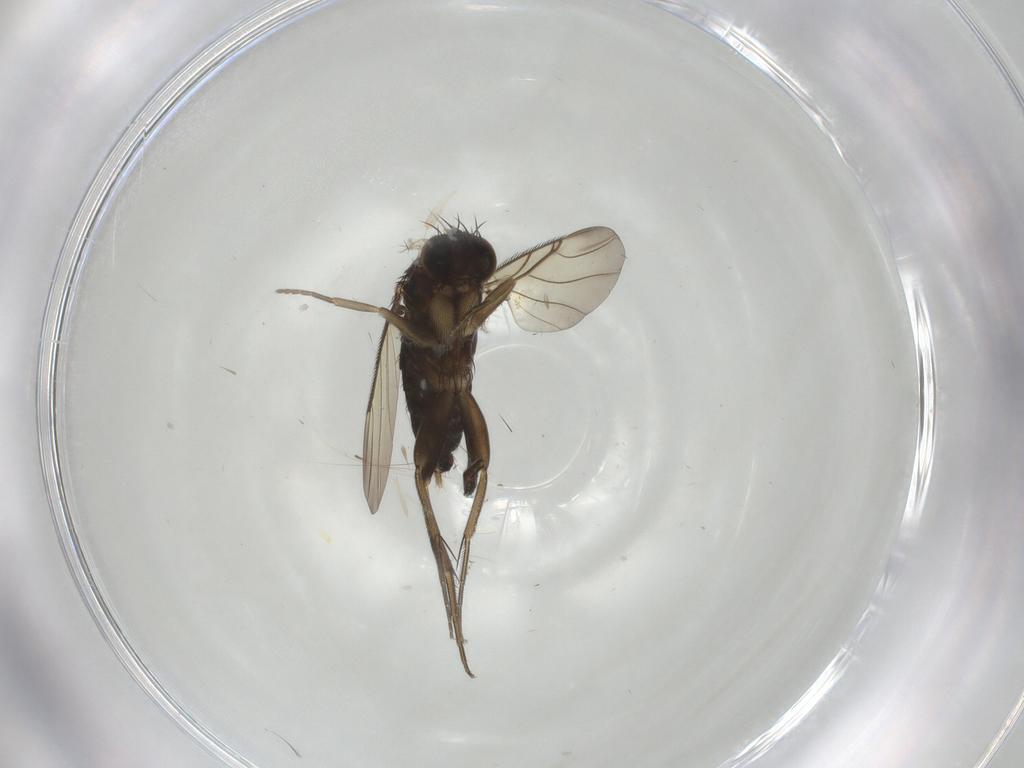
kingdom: Animalia
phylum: Arthropoda
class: Insecta
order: Diptera
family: Phoridae
